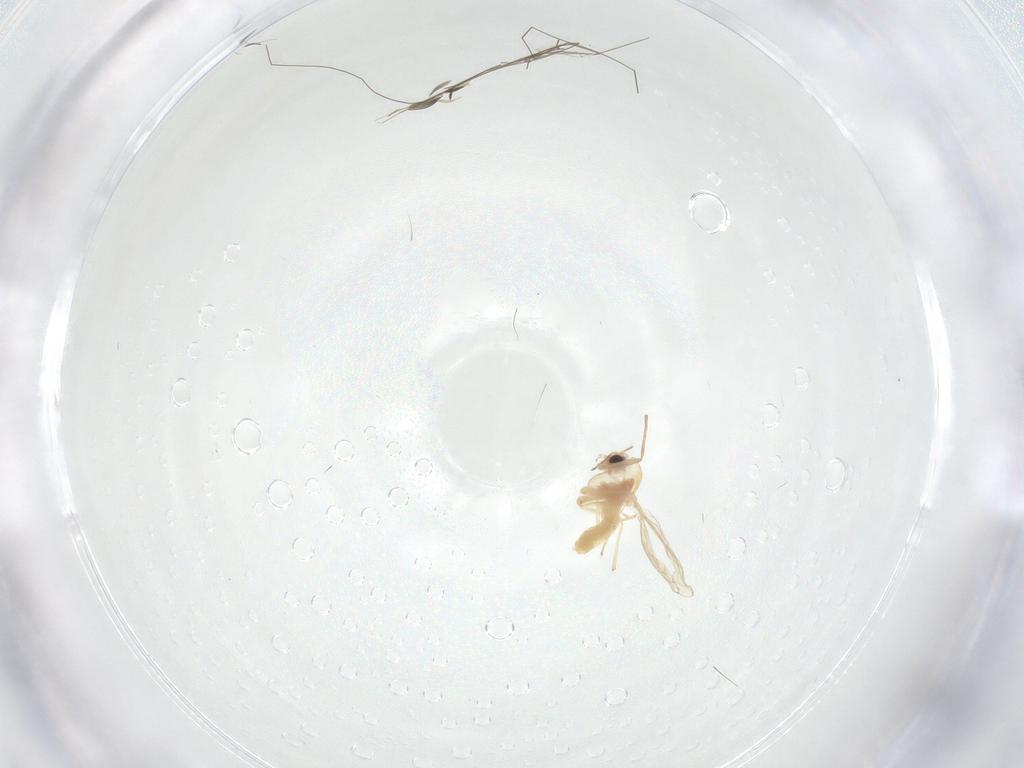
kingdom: Animalia
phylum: Arthropoda
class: Insecta
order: Diptera
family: Limoniidae
